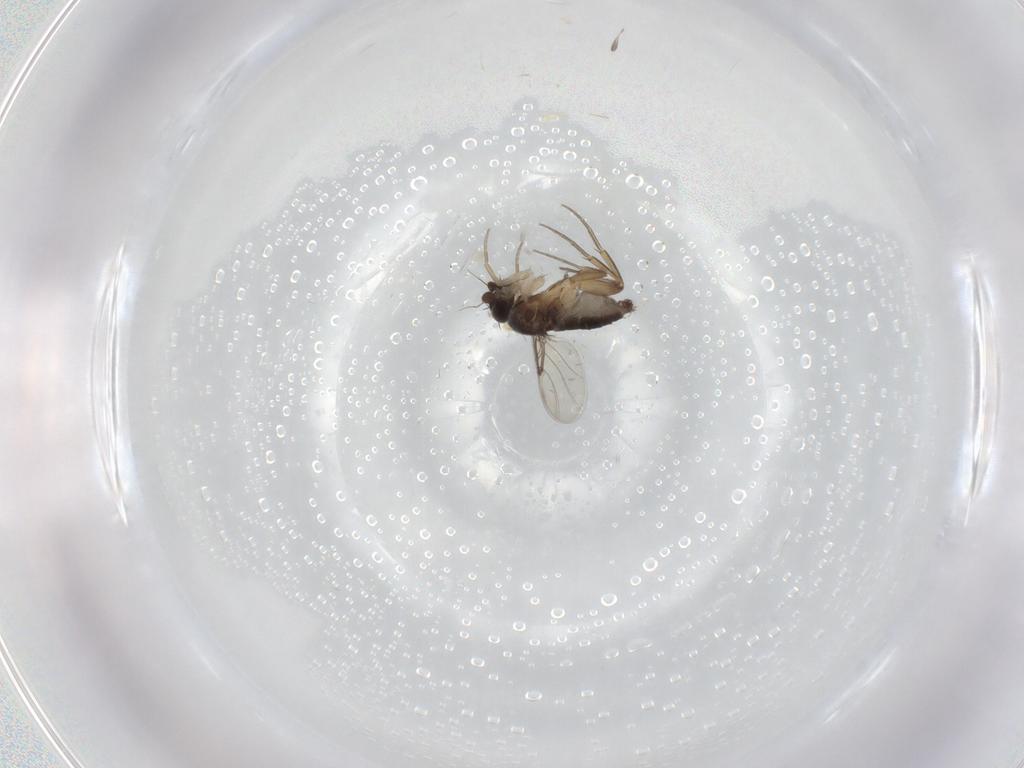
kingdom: Animalia
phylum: Arthropoda
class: Insecta
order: Diptera
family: Phoridae
